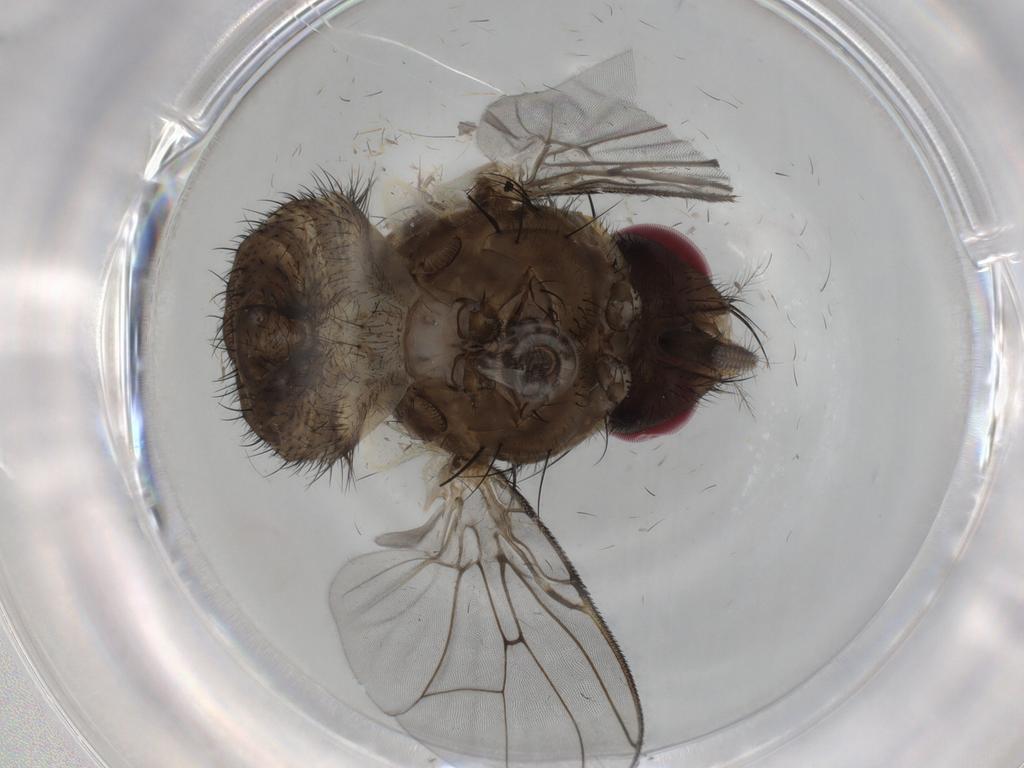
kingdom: Animalia
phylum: Arthropoda
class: Insecta
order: Diptera
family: Muscidae
